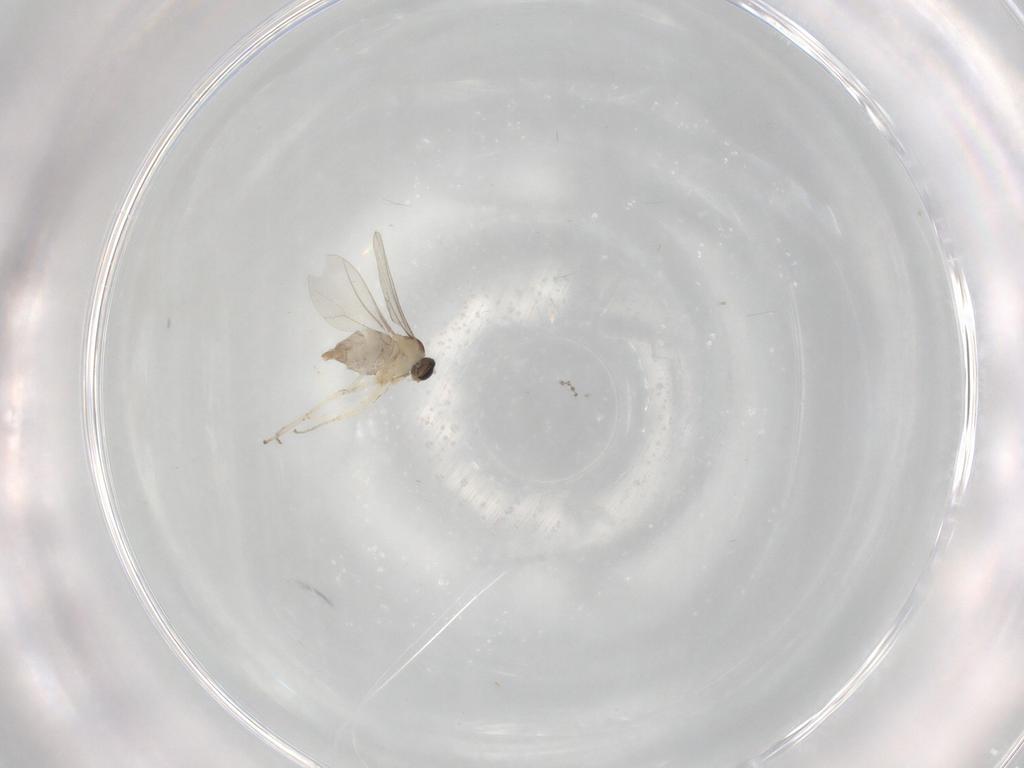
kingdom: Animalia
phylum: Arthropoda
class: Insecta
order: Diptera
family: Cecidomyiidae
